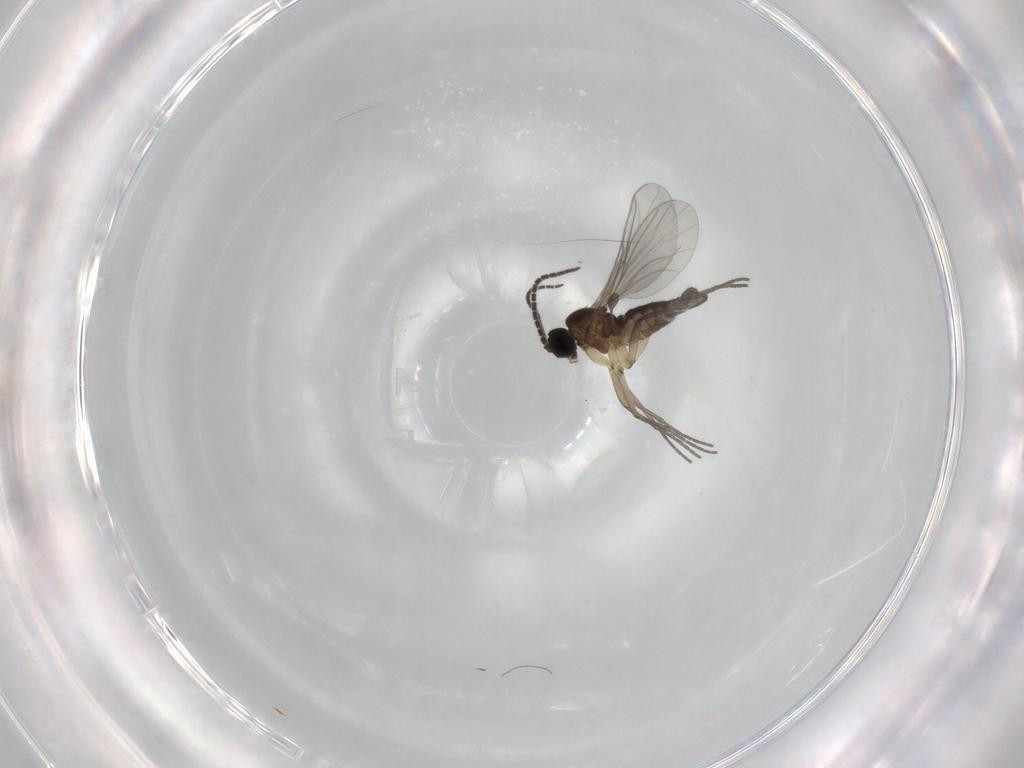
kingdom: Animalia
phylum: Arthropoda
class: Insecta
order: Diptera
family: Sciaridae
